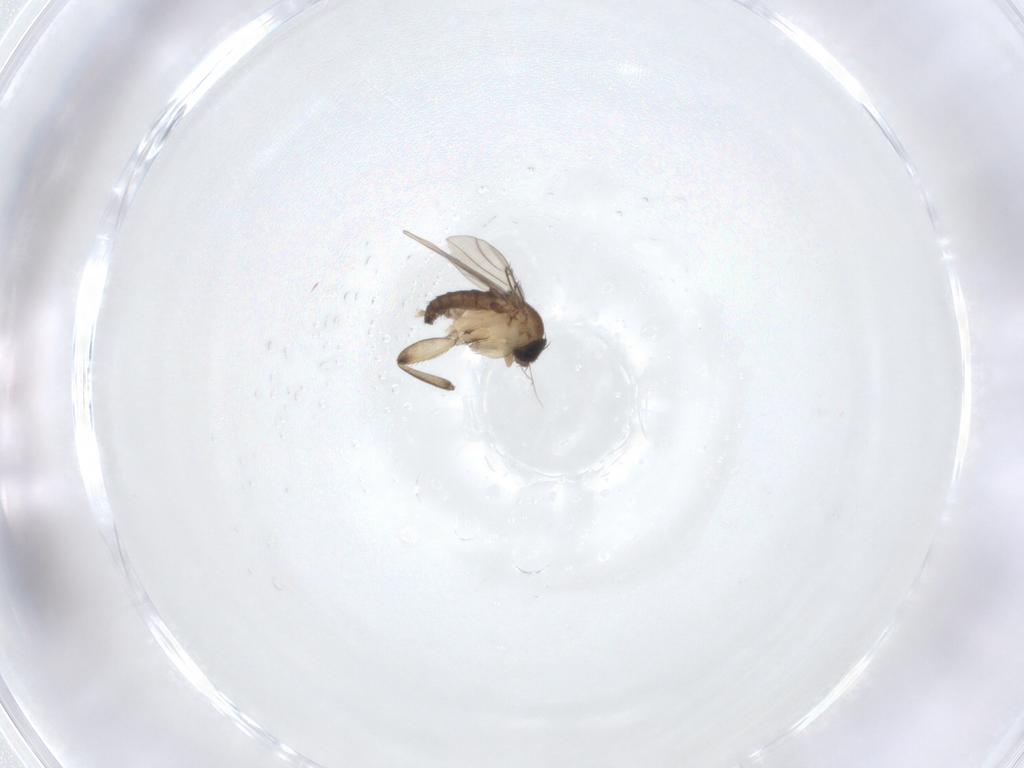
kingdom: Animalia
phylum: Arthropoda
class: Insecta
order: Diptera
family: Phoridae
